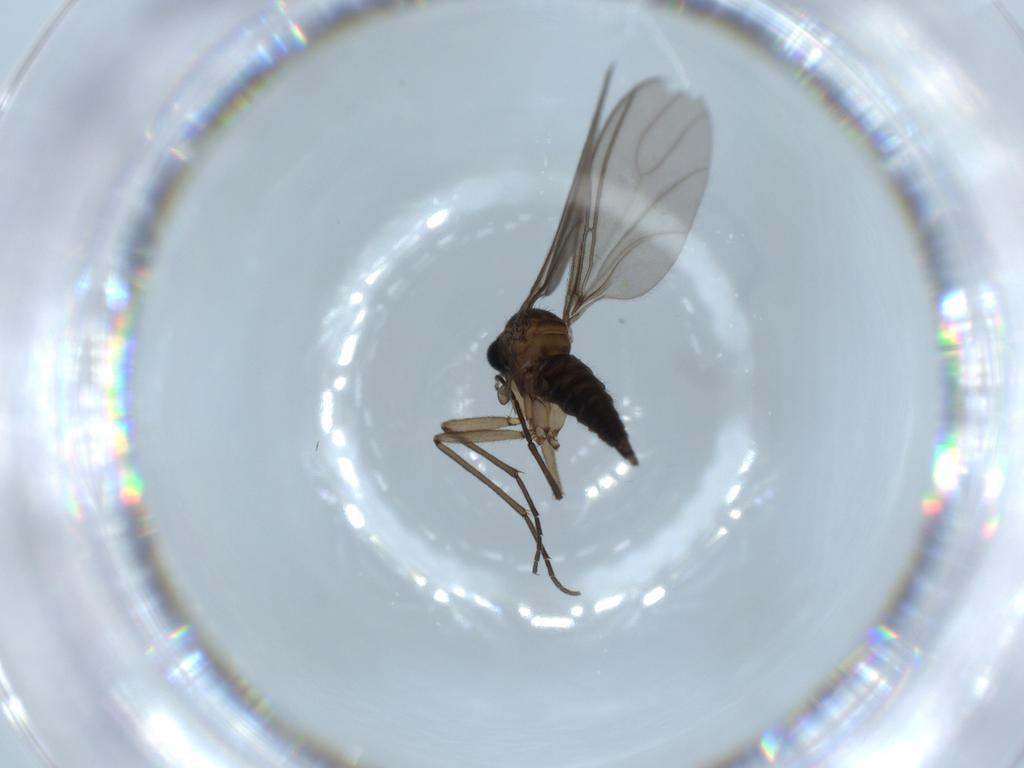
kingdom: Animalia
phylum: Arthropoda
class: Insecta
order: Diptera
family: Sciaridae
